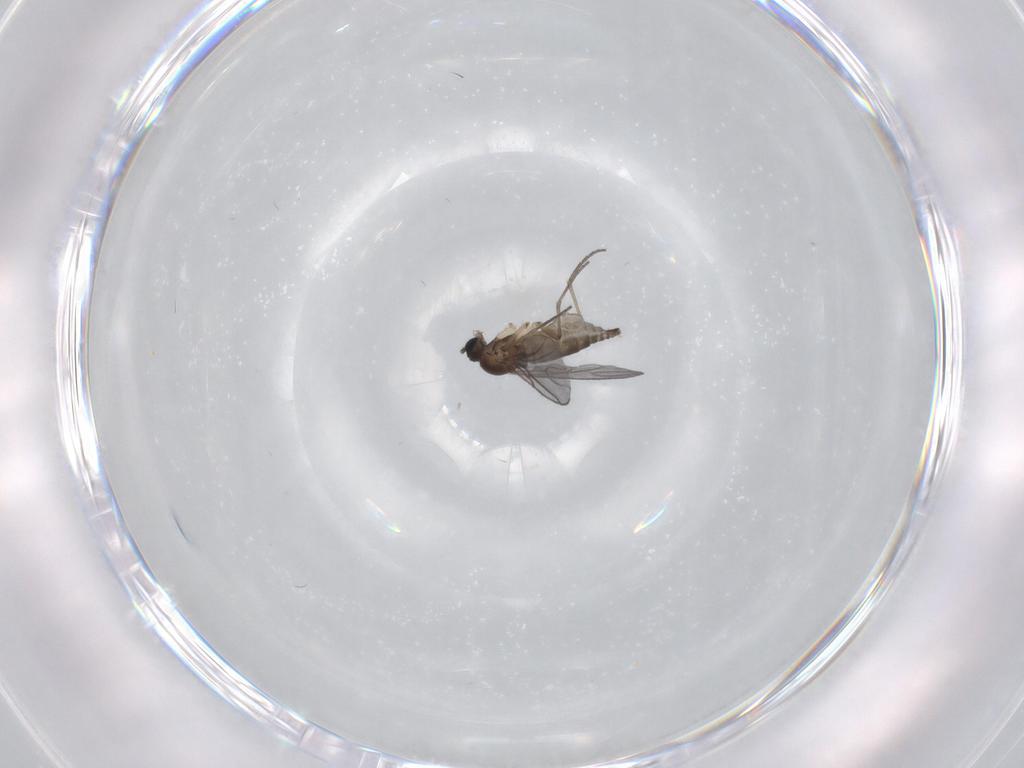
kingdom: Animalia
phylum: Arthropoda
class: Insecta
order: Diptera
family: Sciaridae
